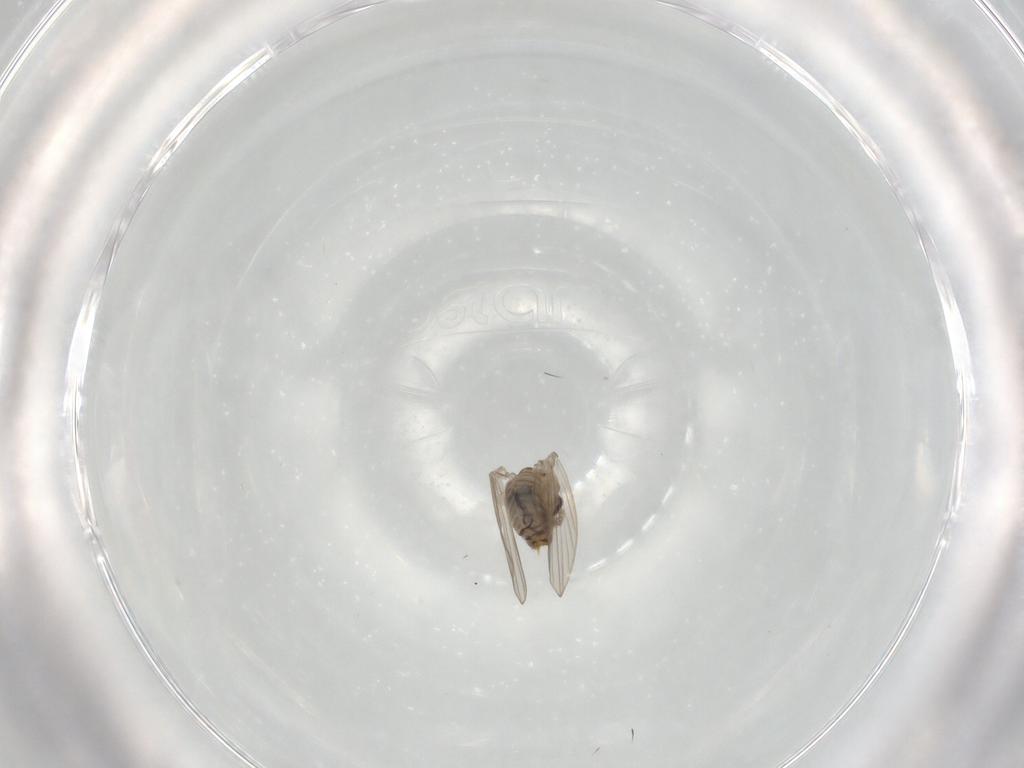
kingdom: Animalia
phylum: Arthropoda
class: Insecta
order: Diptera
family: Psychodidae
